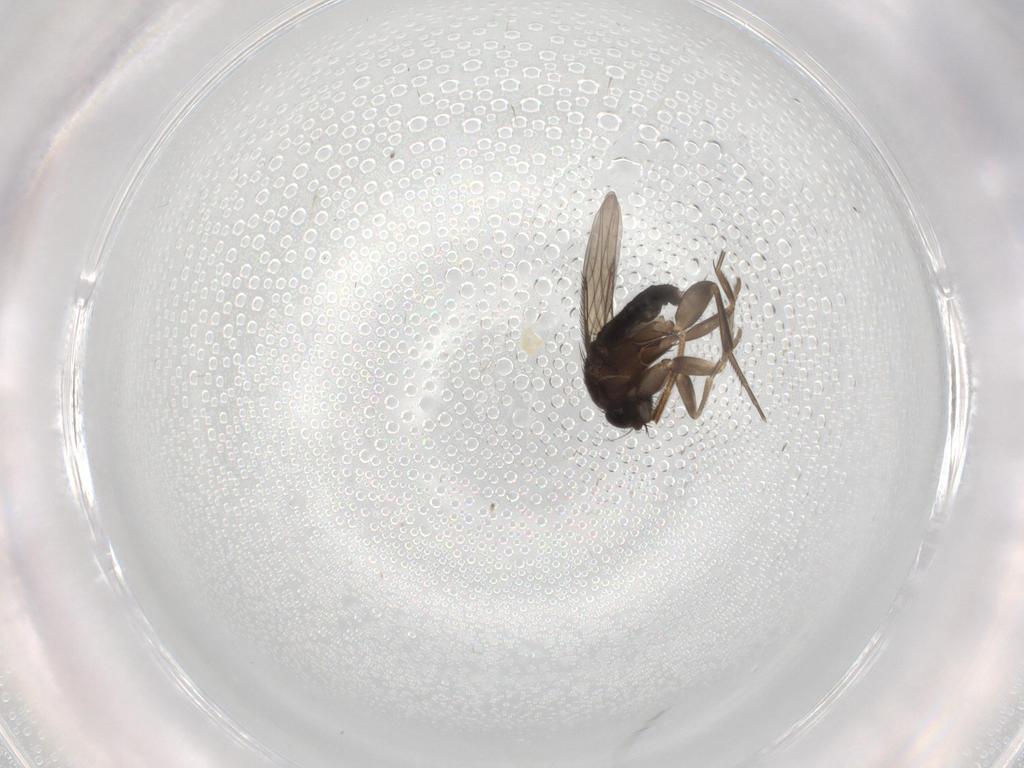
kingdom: Animalia
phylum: Arthropoda
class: Insecta
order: Diptera
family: Phoridae
